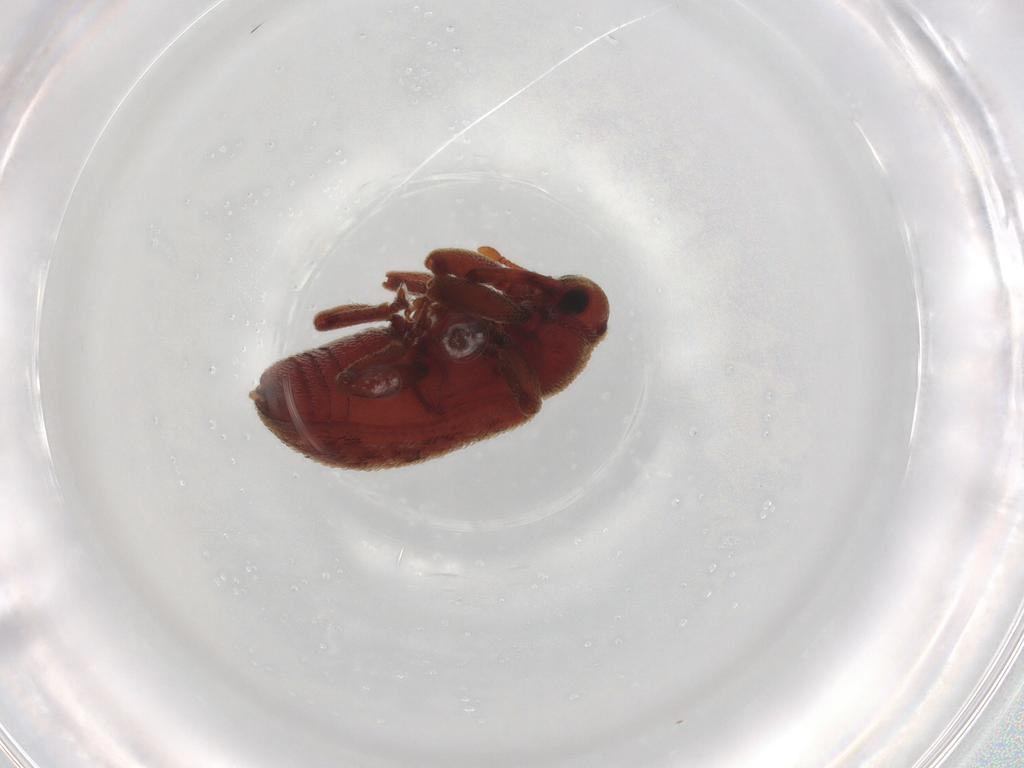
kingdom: Animalia
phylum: Arthropoda
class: Insecta
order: Coleoptera
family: Curculionidae
